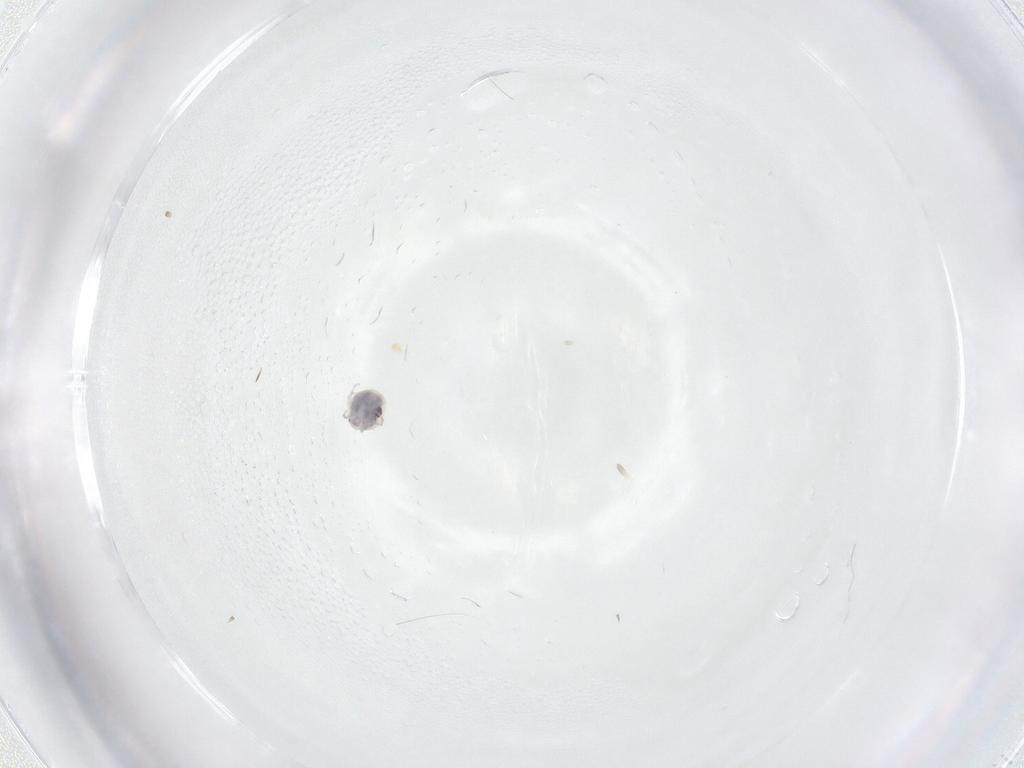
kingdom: Animalia
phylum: Arthropoda
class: Arachnida
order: Trombidiformes
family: Pionidae
